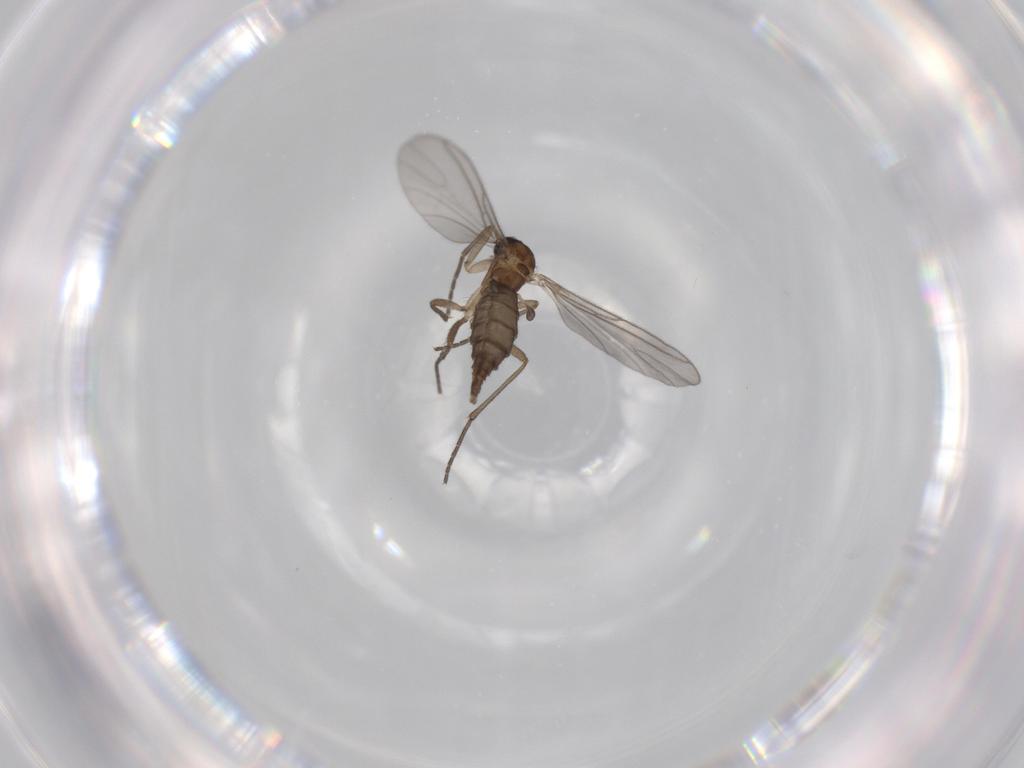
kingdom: Animalia
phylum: Arthropoda
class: Insecta
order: Diptera
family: Sciaridae
